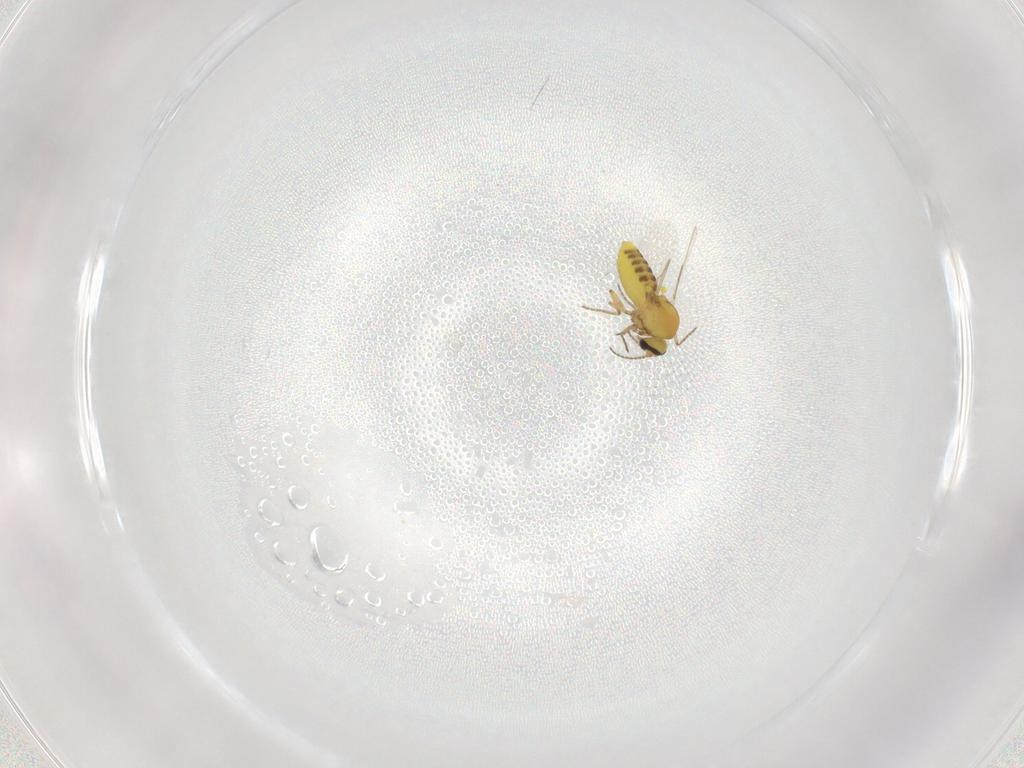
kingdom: Animalia
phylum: Arthropoda
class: Insecta
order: Diptera
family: Ceratopogonidae
